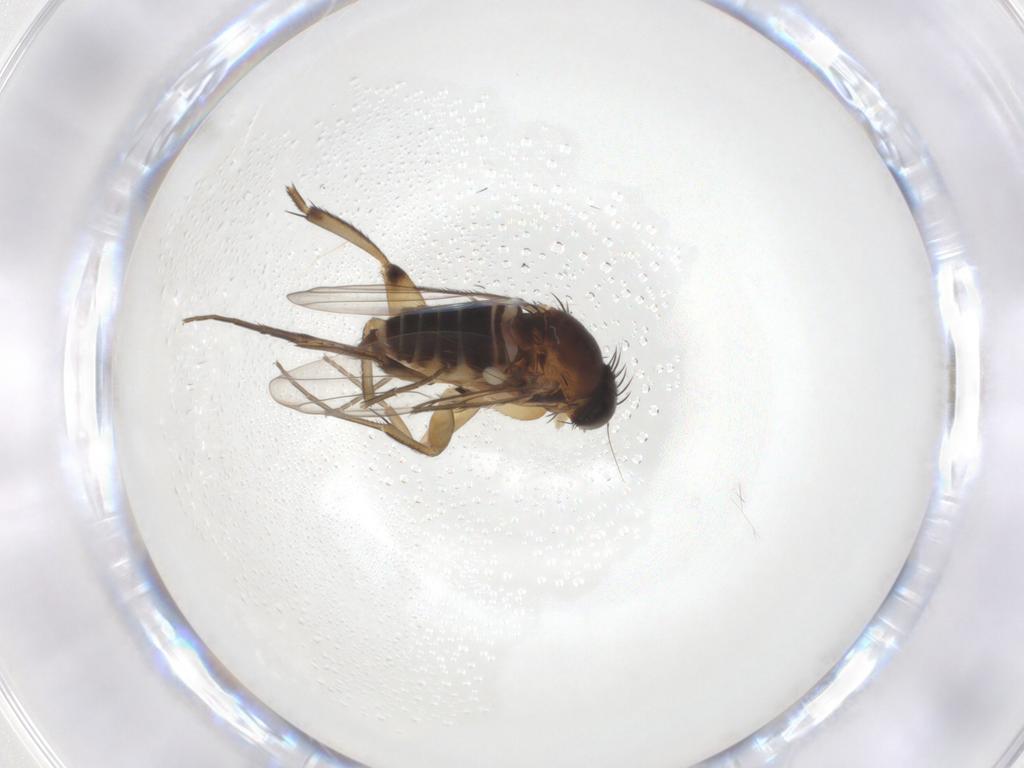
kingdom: Animalia
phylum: Arthropoda
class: Insecta
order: Diptera
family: Phoridae
